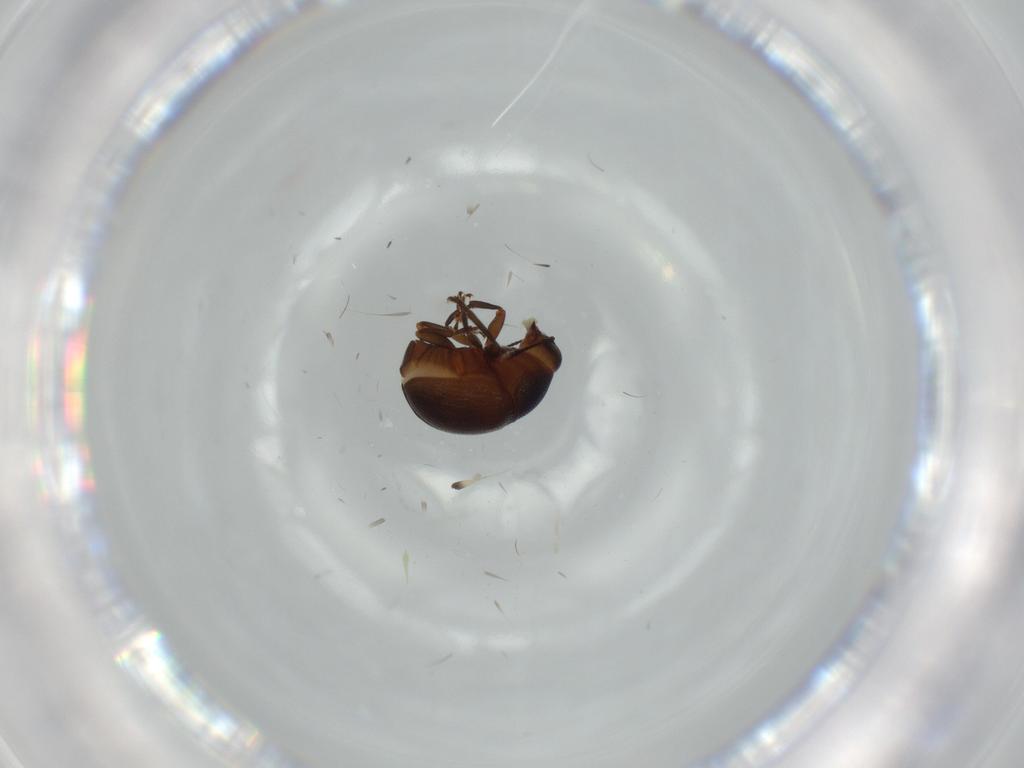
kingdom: Animalia
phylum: Arthropoda
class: Insecta
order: Coleoptera
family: Anthribidae
